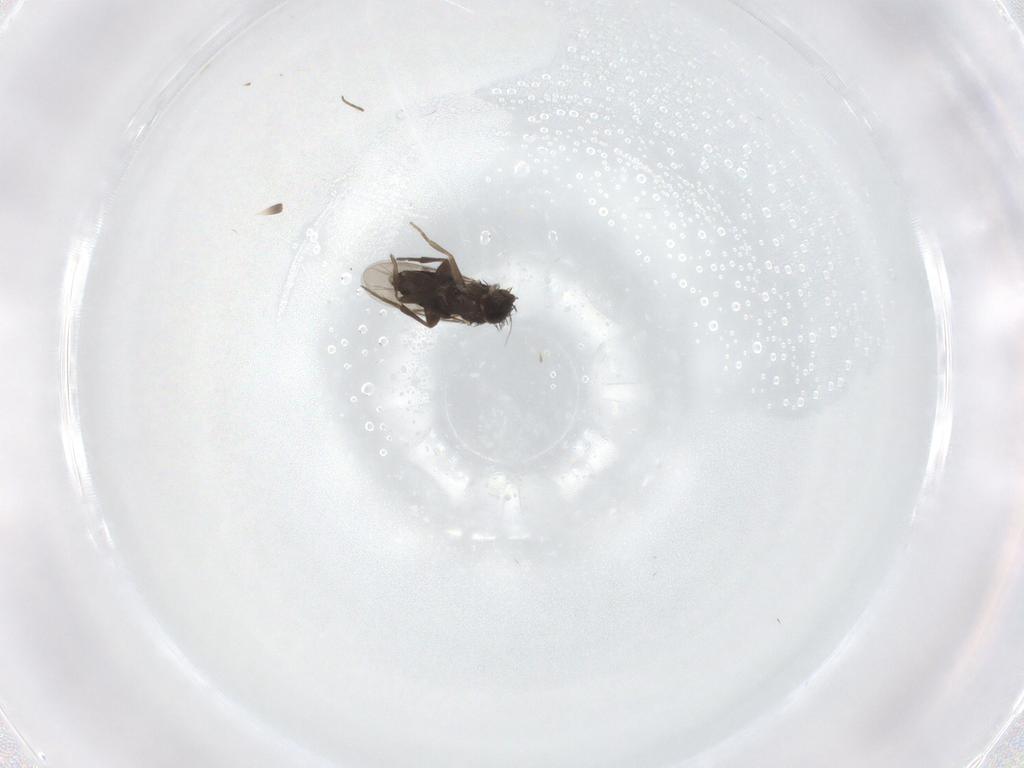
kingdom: Animalia
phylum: Arthropoda
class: Insecta
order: Diptera
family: Phoridae
